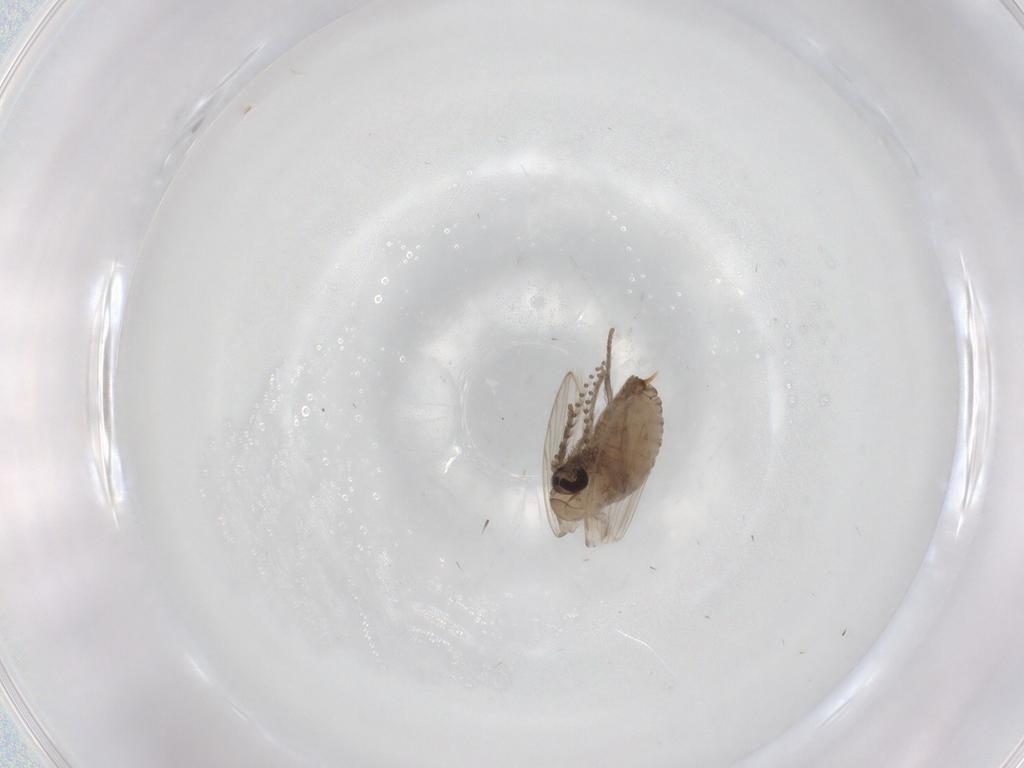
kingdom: Animalia
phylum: Arthropoda
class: Insecta
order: Diptera
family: Psychodidae
